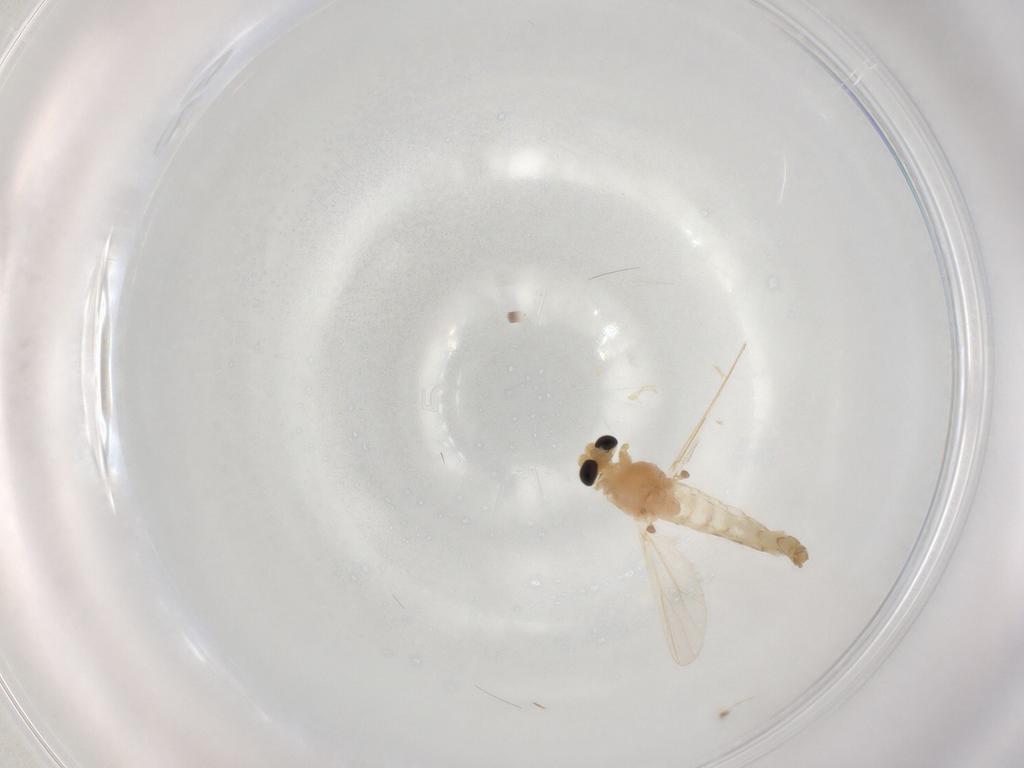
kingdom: Animalia
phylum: Arthropoda
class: Insecta
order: Diptera
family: Chironomidae
